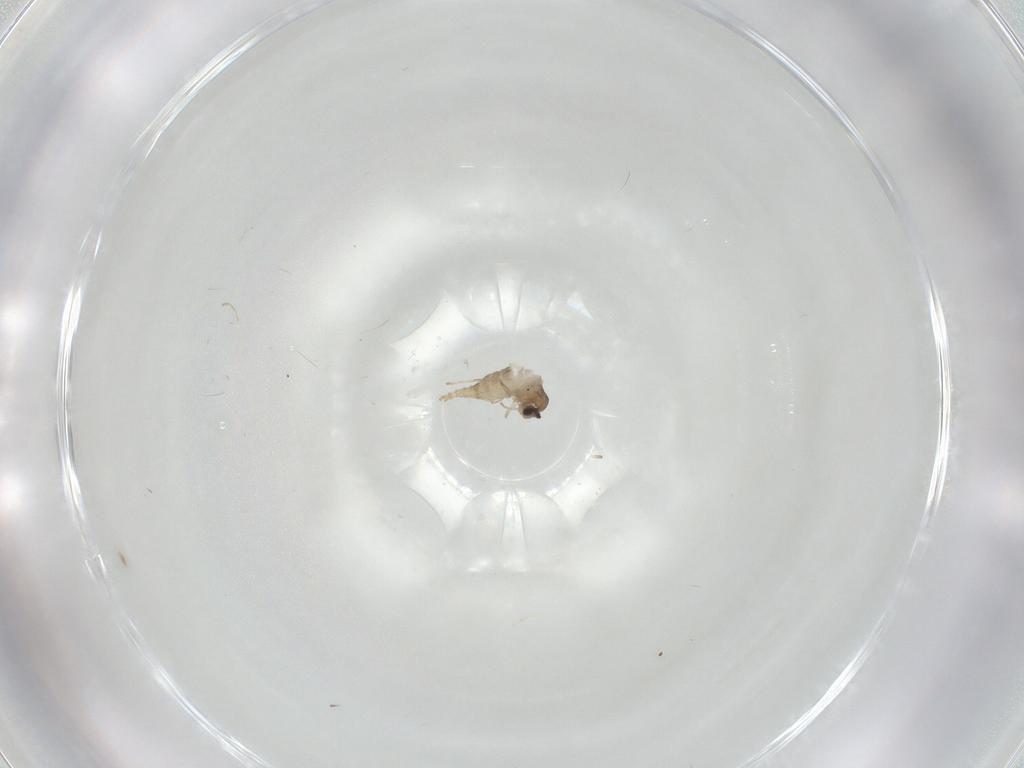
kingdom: Animalia
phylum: Arthropoda
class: Insecta
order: Diptera
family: Cecidomyiidae
